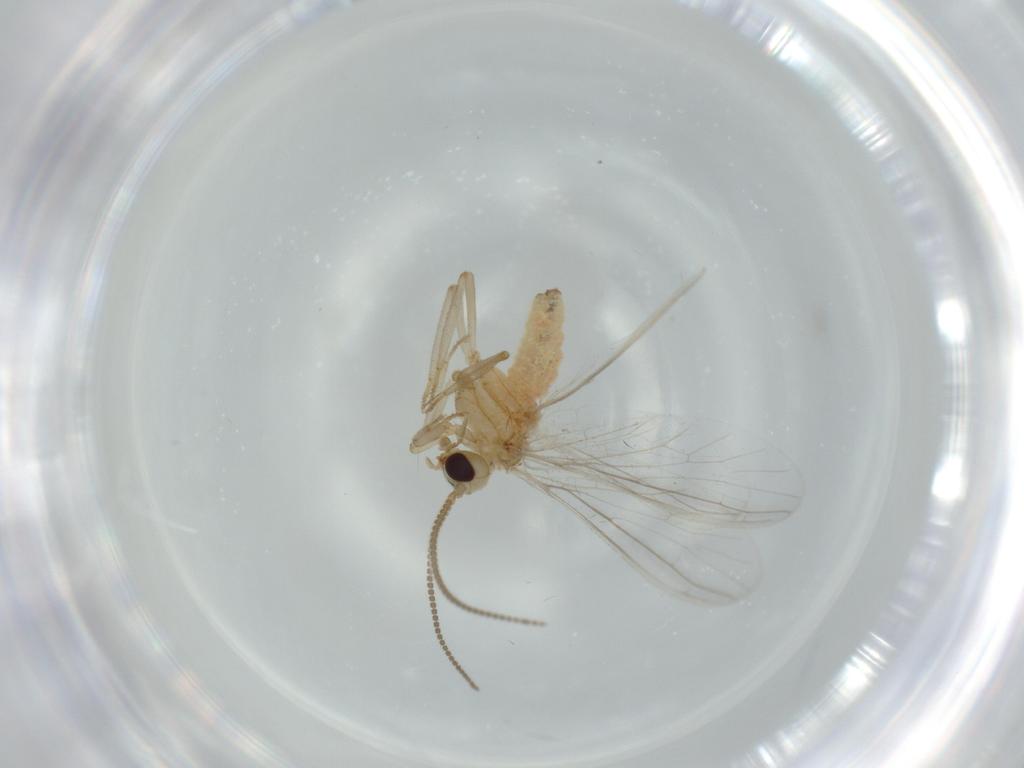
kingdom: Animalia
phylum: Arthropoda
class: Insecta
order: Neuroptera
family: Coniopterygidae
